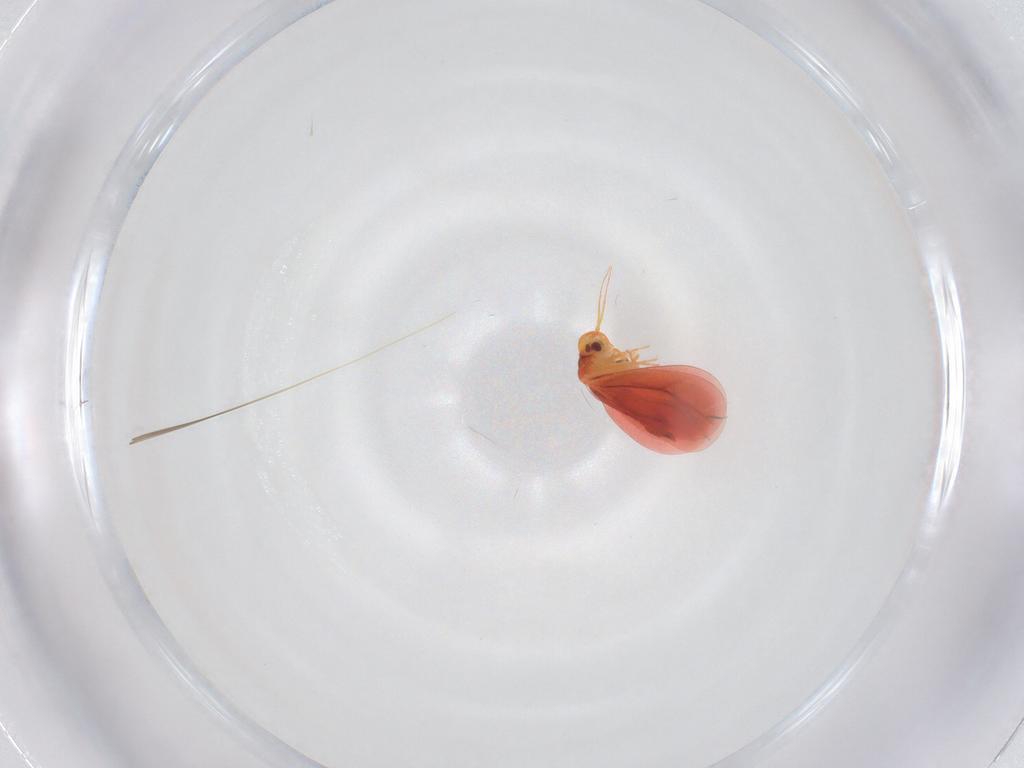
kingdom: Animalia
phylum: Arthropoda
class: Insecta
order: Hemiptera
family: Aleyrodidae
